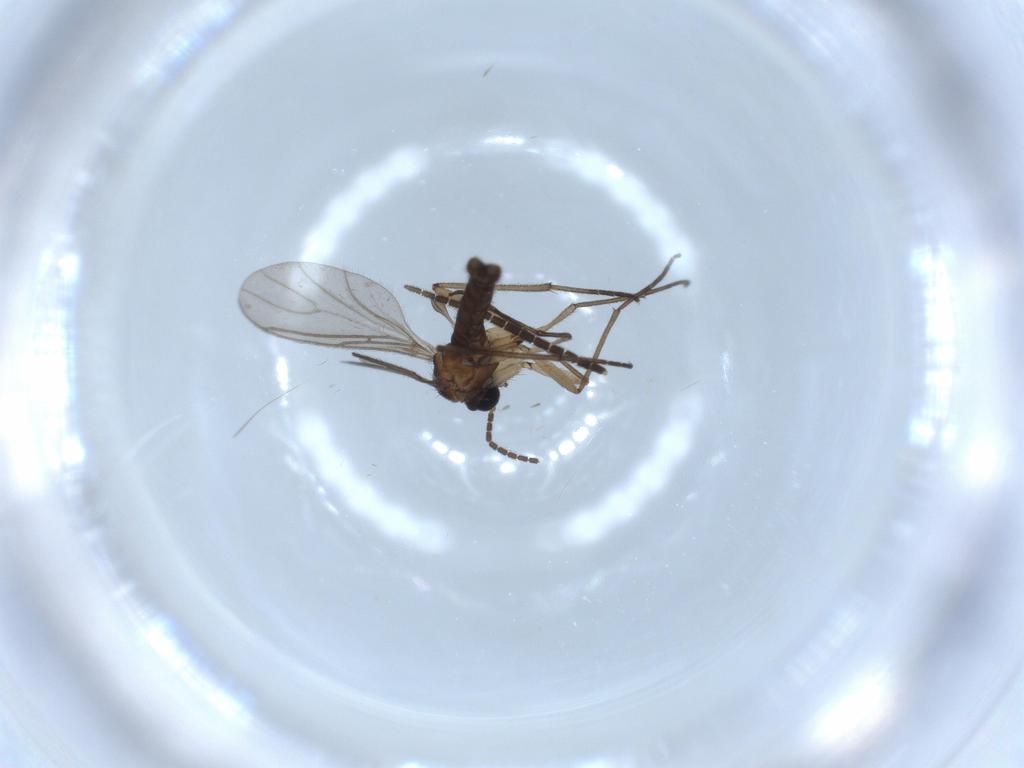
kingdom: Animalia
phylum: Arthropoda
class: Insecta
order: Diptera
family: Sciaridae
